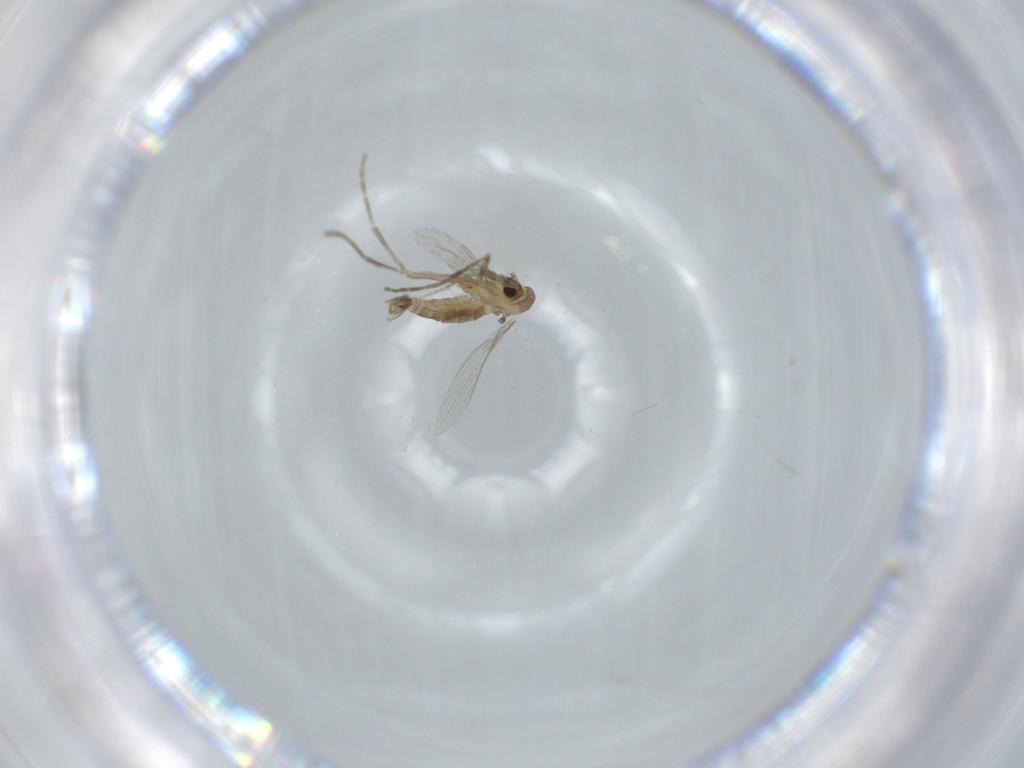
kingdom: Animalia
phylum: Arthropoda
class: Insecta
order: Diptera
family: Psychodidae
